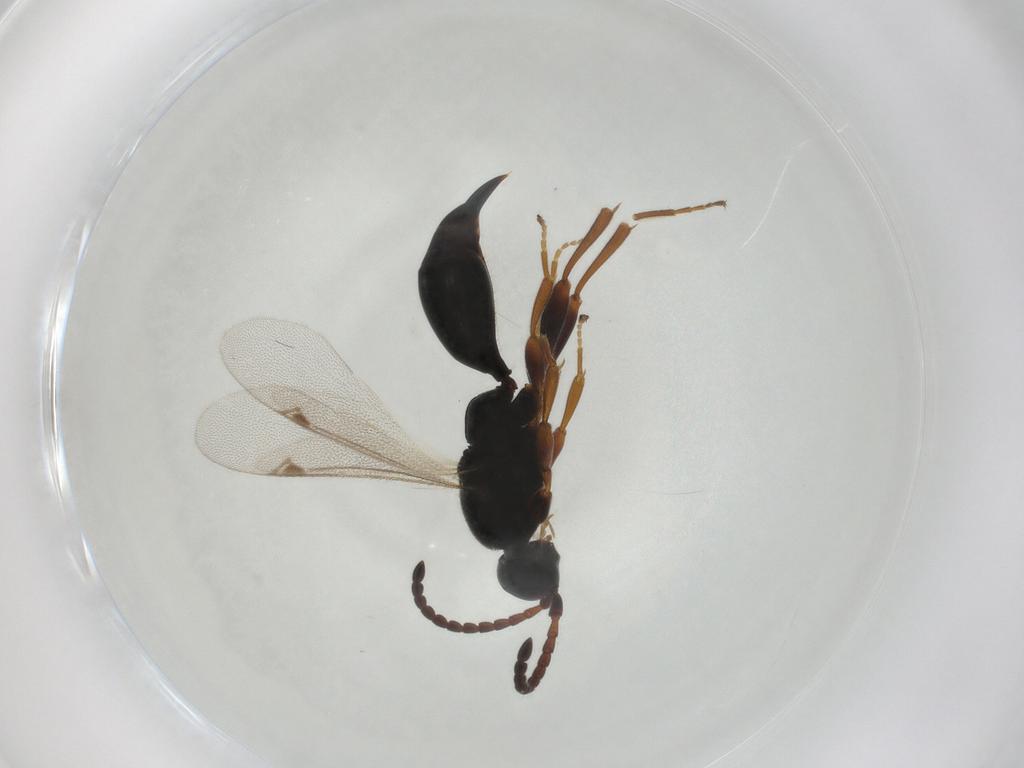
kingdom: Animalia
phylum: Arthropoda
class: Insecta
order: Hymenoptera
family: Ichneumonidae
